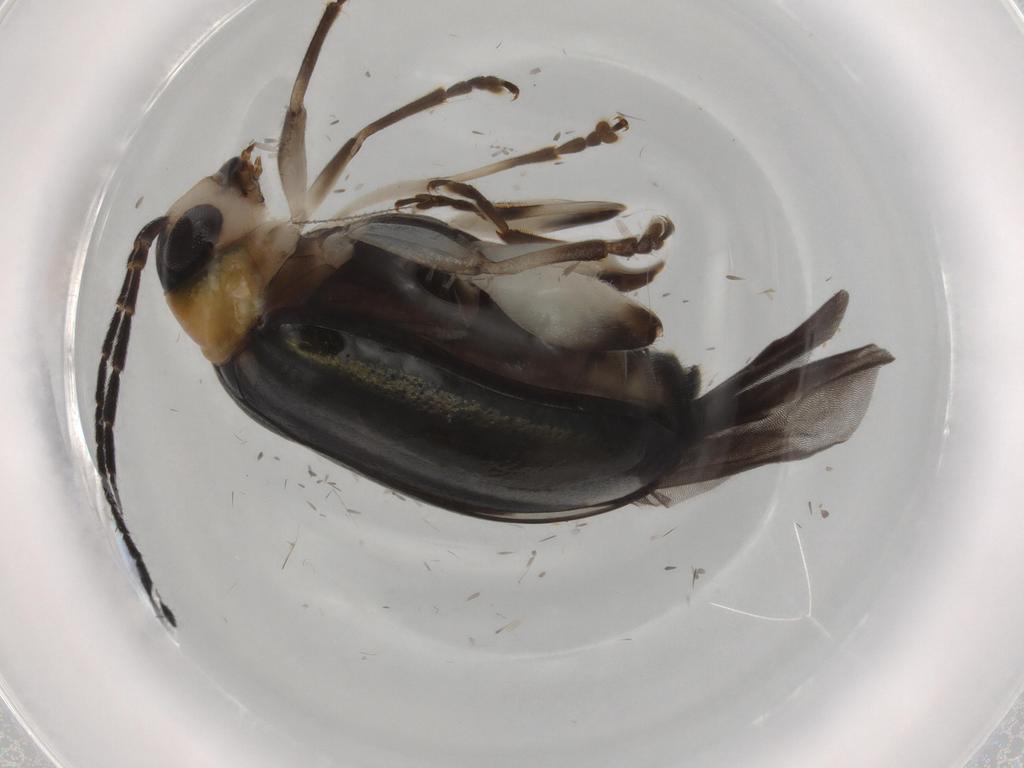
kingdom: Animalia
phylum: Arthropoda
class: Insecta
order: Coleoptera
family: Chrysomelidae
